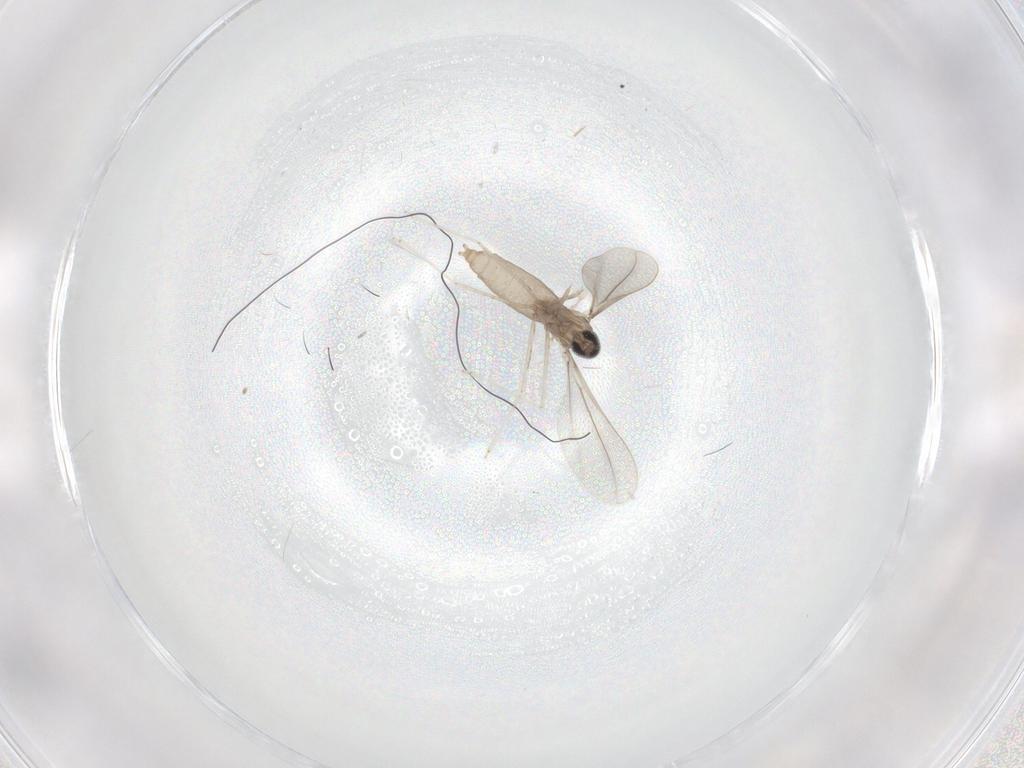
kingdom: Animalia
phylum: Arthropoda
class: Insecta
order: Diptera
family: Cecidomyiidae
